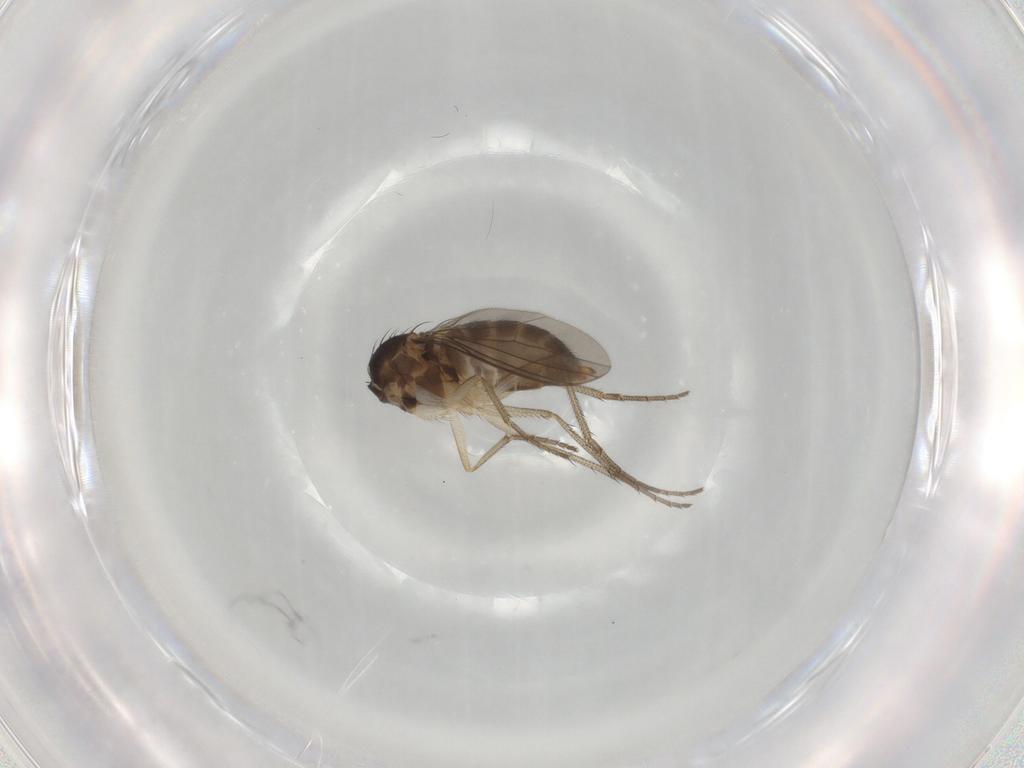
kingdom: Animalia
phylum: Arthropoda
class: Insecta
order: Diptera
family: Dolichopodidae
